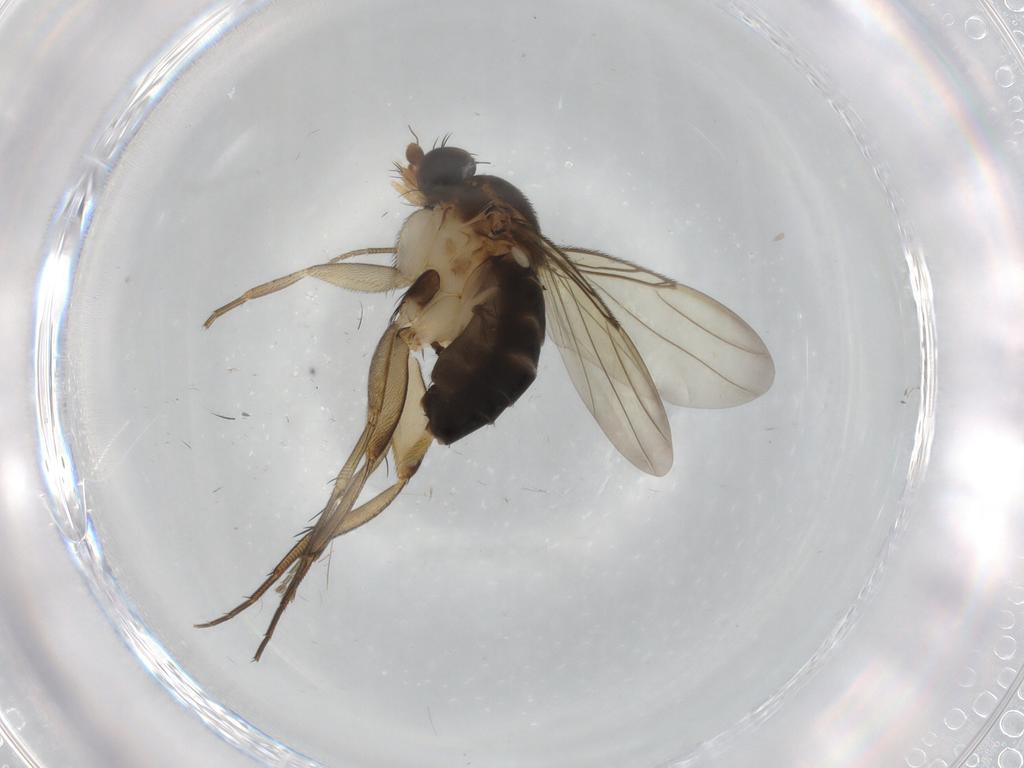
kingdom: Animalia
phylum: Arthropoda
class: Insecta
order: Diptera
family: Phoridae
